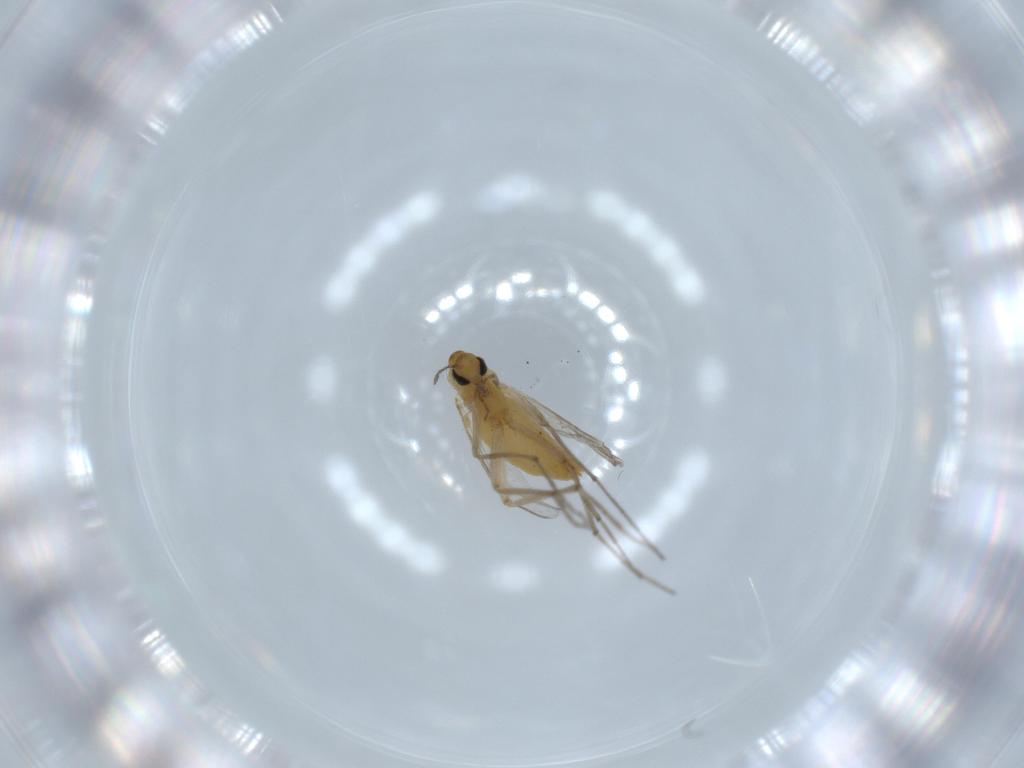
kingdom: Animalia
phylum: Arthropoda
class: Insecta
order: Diptera
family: Chironomidae
